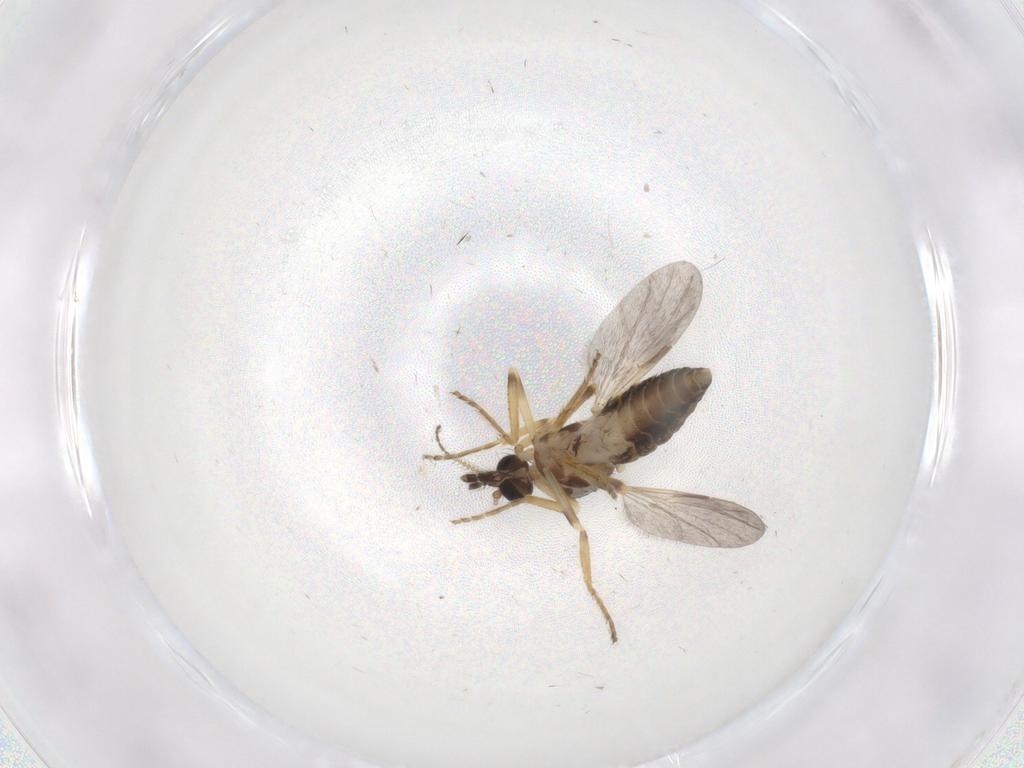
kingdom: Animalia
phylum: Arthropoda
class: Insecta
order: Diptera
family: Ceratopogonidae
